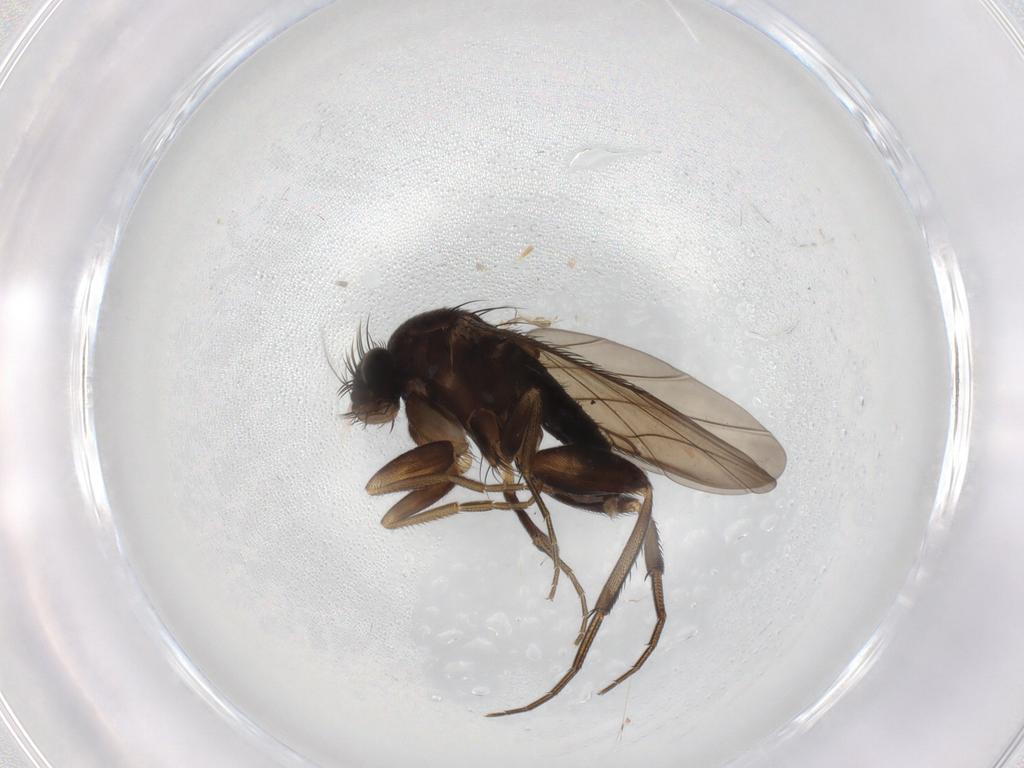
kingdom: Animalia
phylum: Arthropoda
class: Insecta
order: Diptera
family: Phoridae
